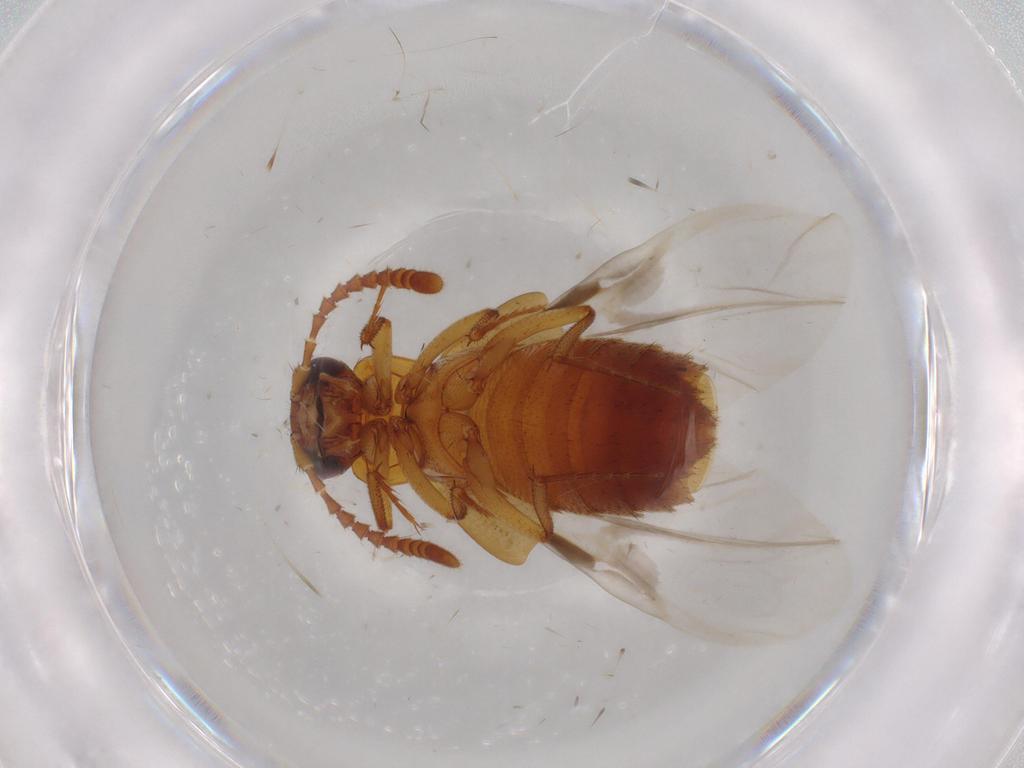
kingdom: Animalia
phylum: Arthropoda
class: Insecta
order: Coleoptera
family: Scarabaeidae
